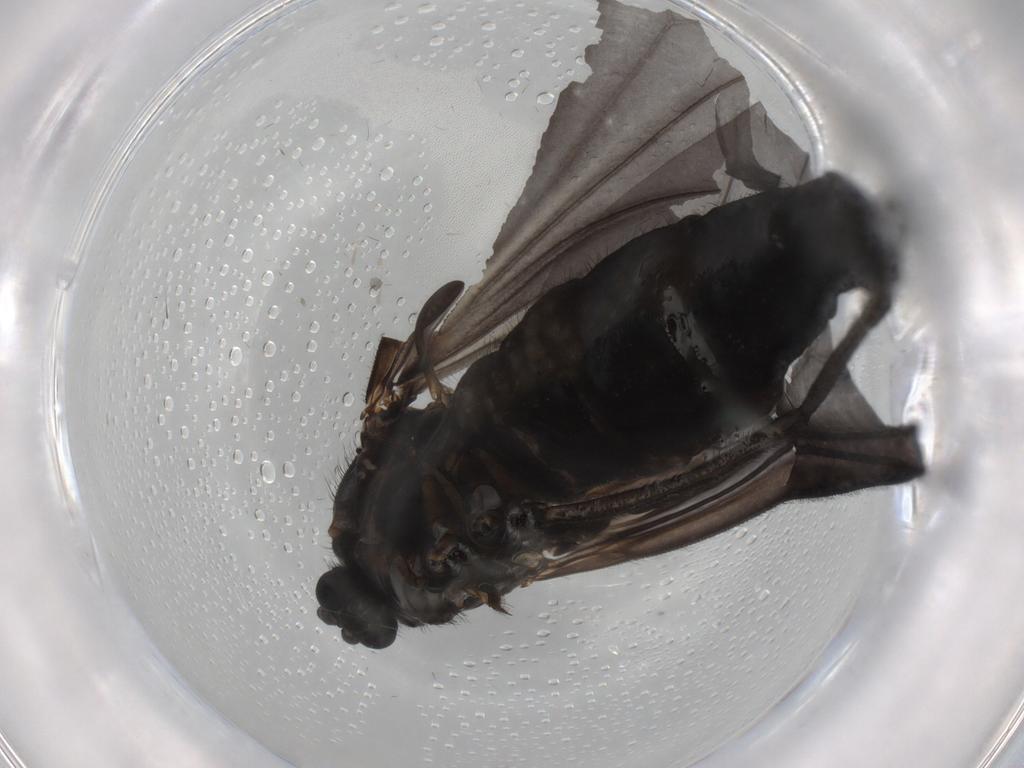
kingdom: Animalia
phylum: Arthropoda
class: Insecta
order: Diptera
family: Sciaridae
